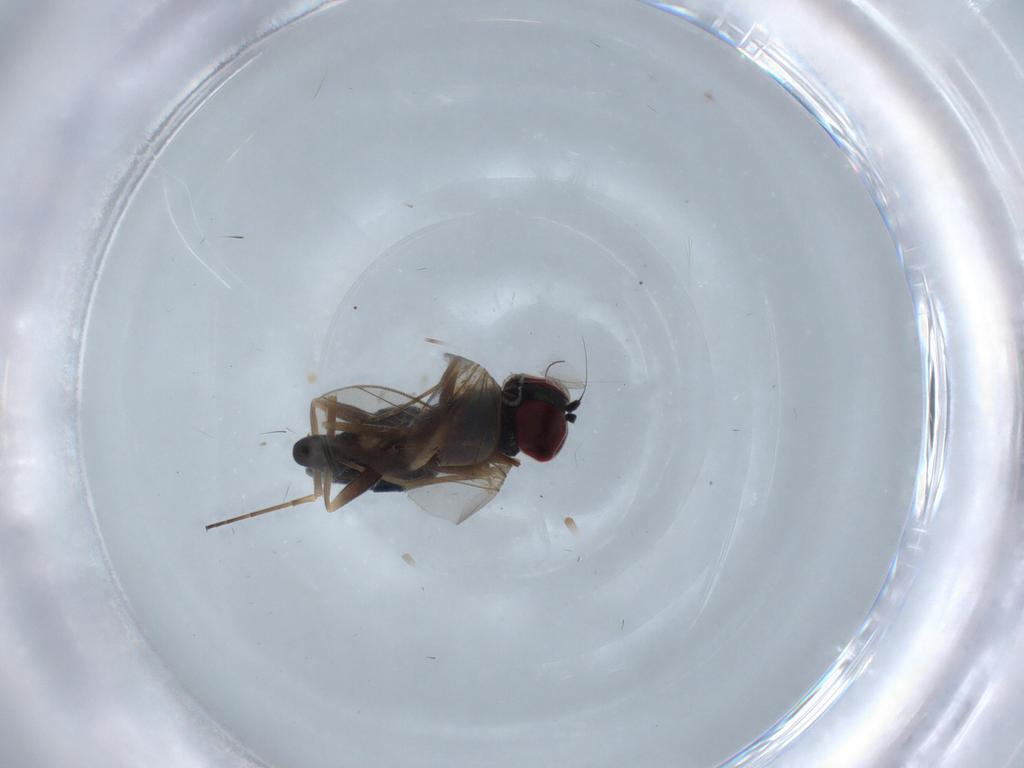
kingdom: Animalia
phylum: Arthropoda
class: Insecta
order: Diptera
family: Dolichopodidae
